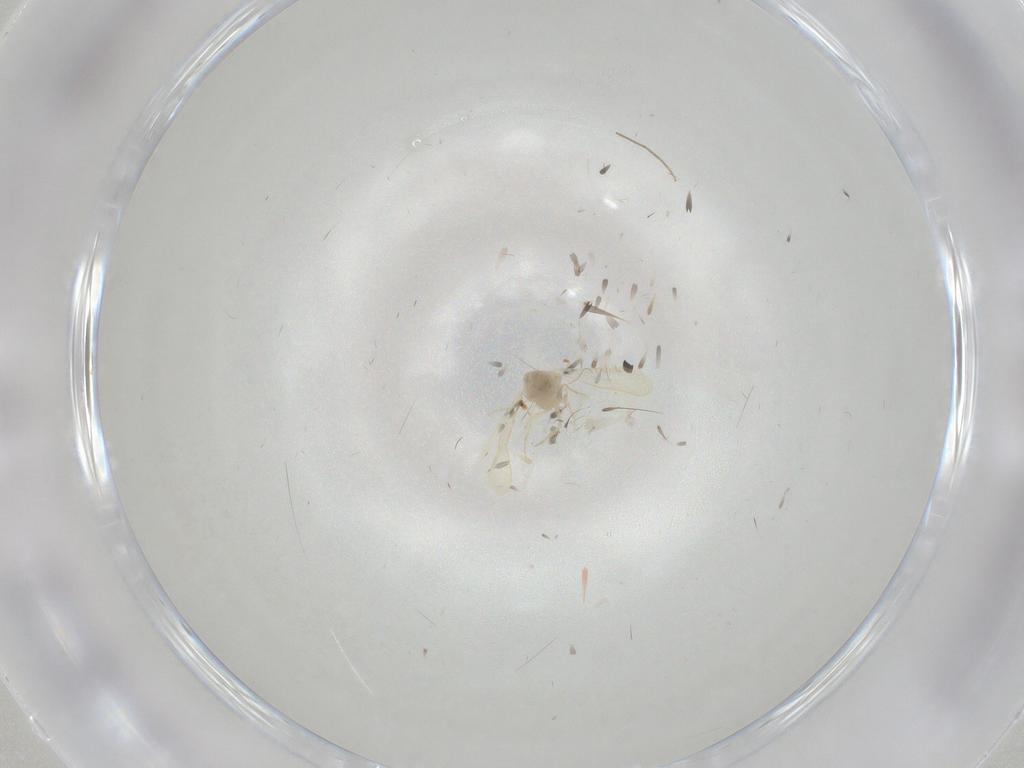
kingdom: Animalia
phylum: Arthropoda
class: Insecta
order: Hemiptera
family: Aleyrodidae
